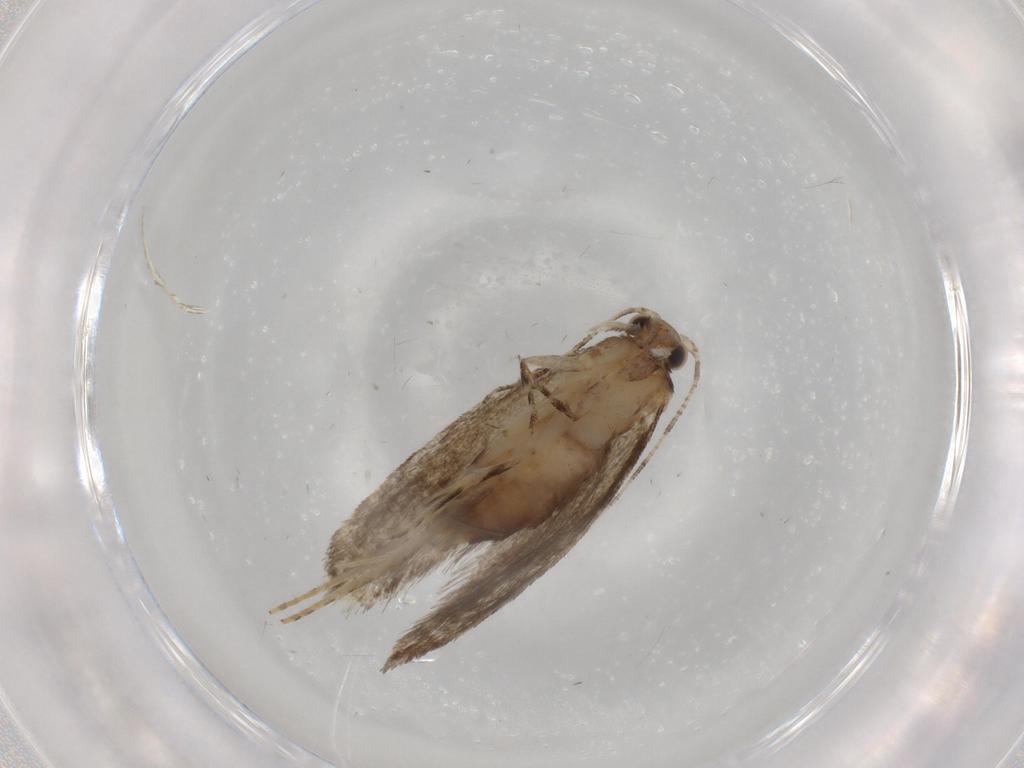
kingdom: Animalia
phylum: Arthropoda
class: Insecta
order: Lepidoptera
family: Tineidae
